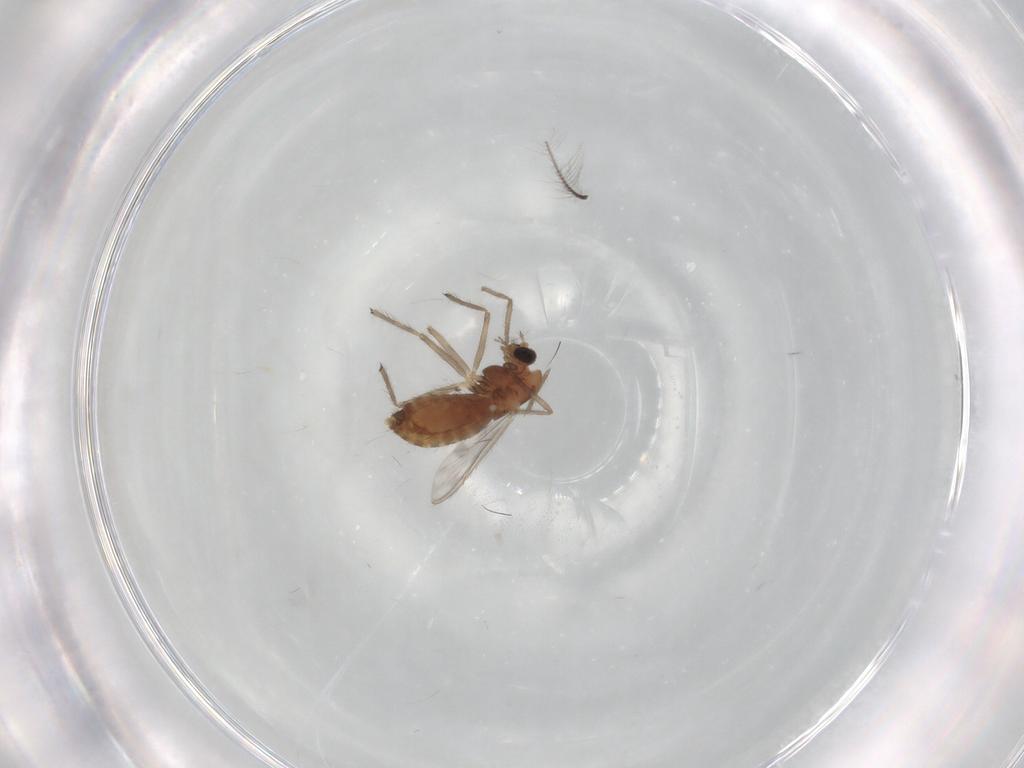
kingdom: Animalia
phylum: Arthropoda
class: Insecta
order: Diptera
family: Chironomidae
